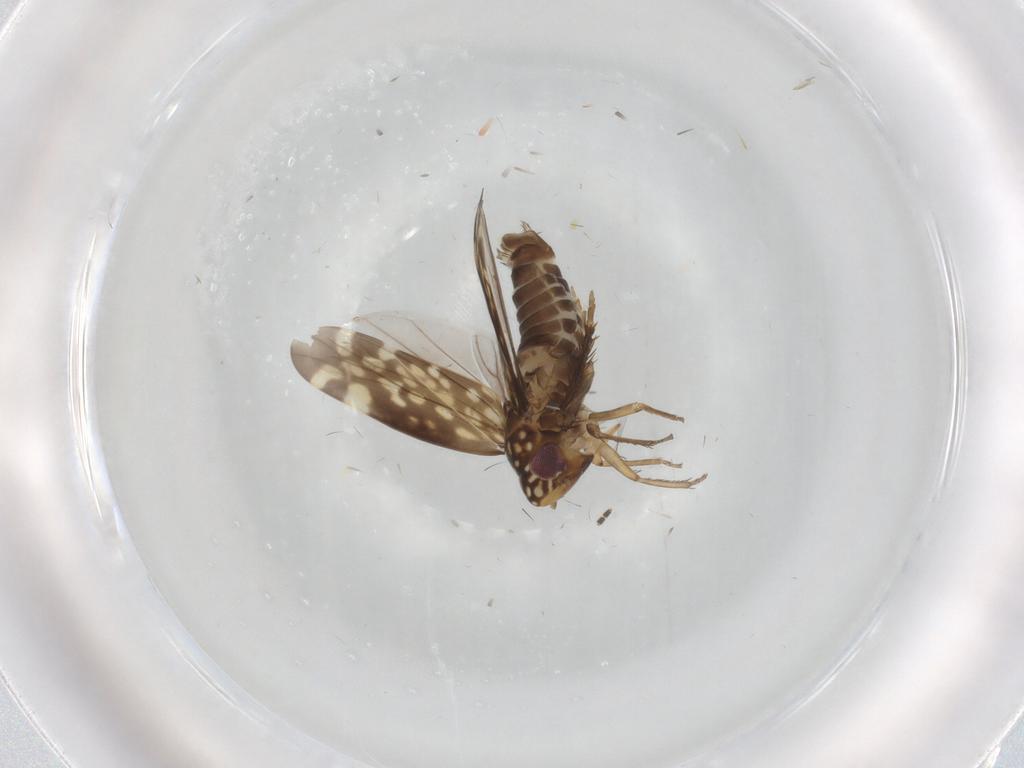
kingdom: Animalia
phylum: Arthropoda
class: Insecta
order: Hemiptera
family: Cicadellidae
